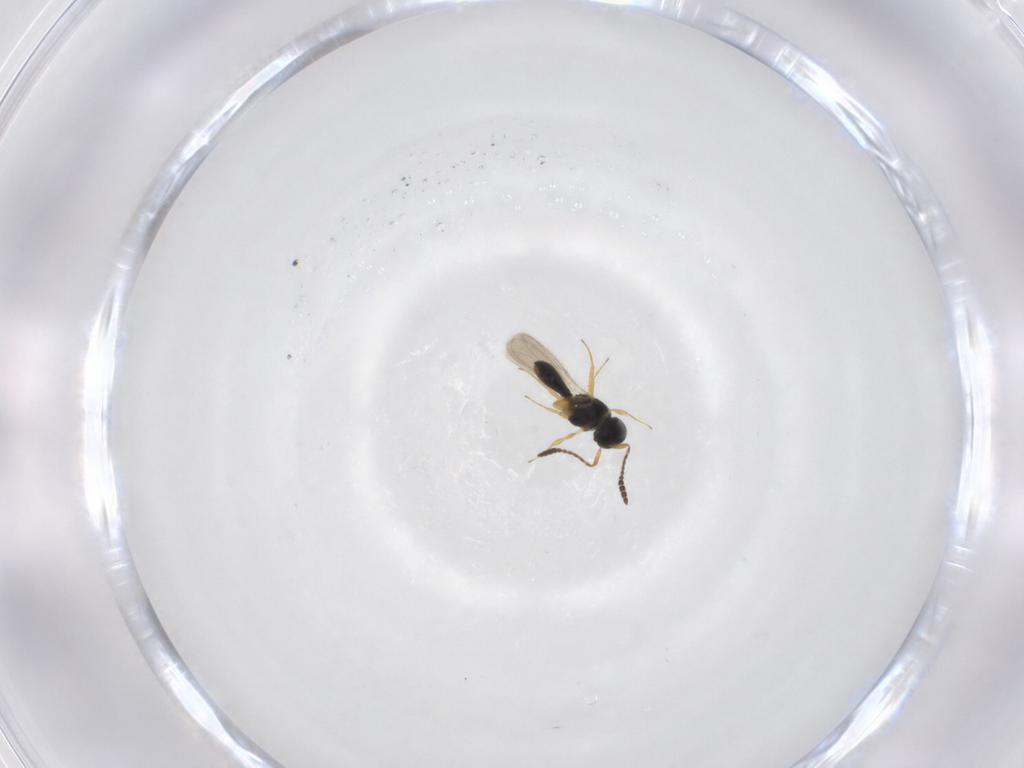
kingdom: Animalia
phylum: Arthropoda
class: Insecta
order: Hymenoptera
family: Scelionidae
